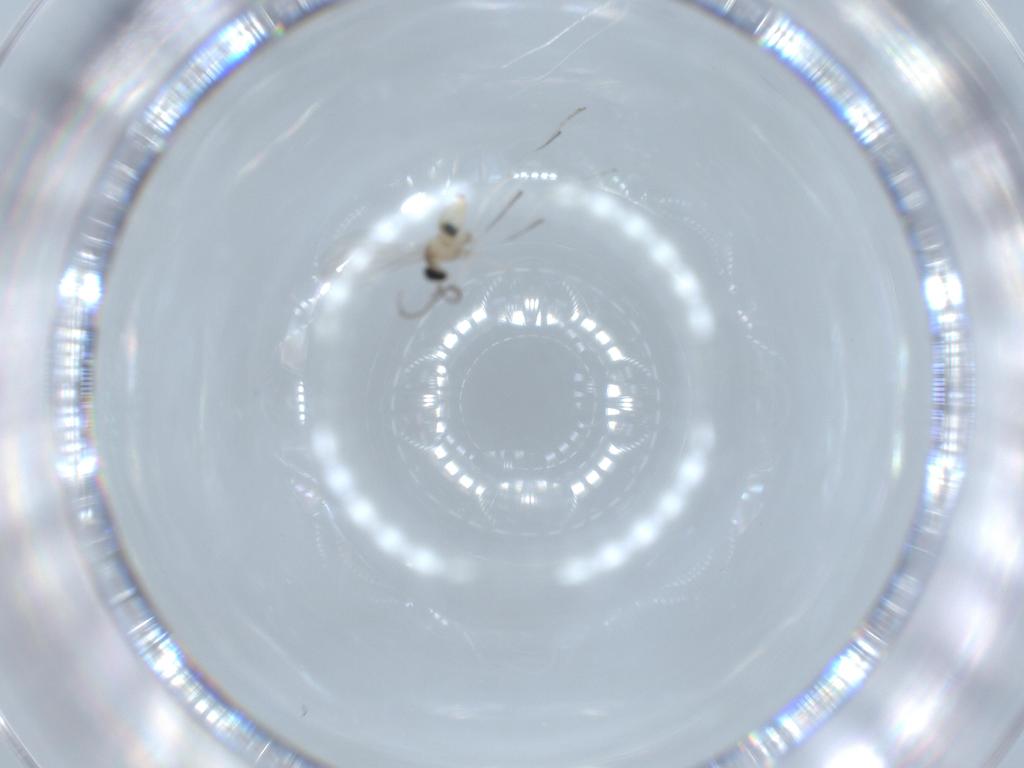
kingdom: Animalia
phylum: Arthropoda
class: Insecta
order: Diptera
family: Cecidomyiidae
